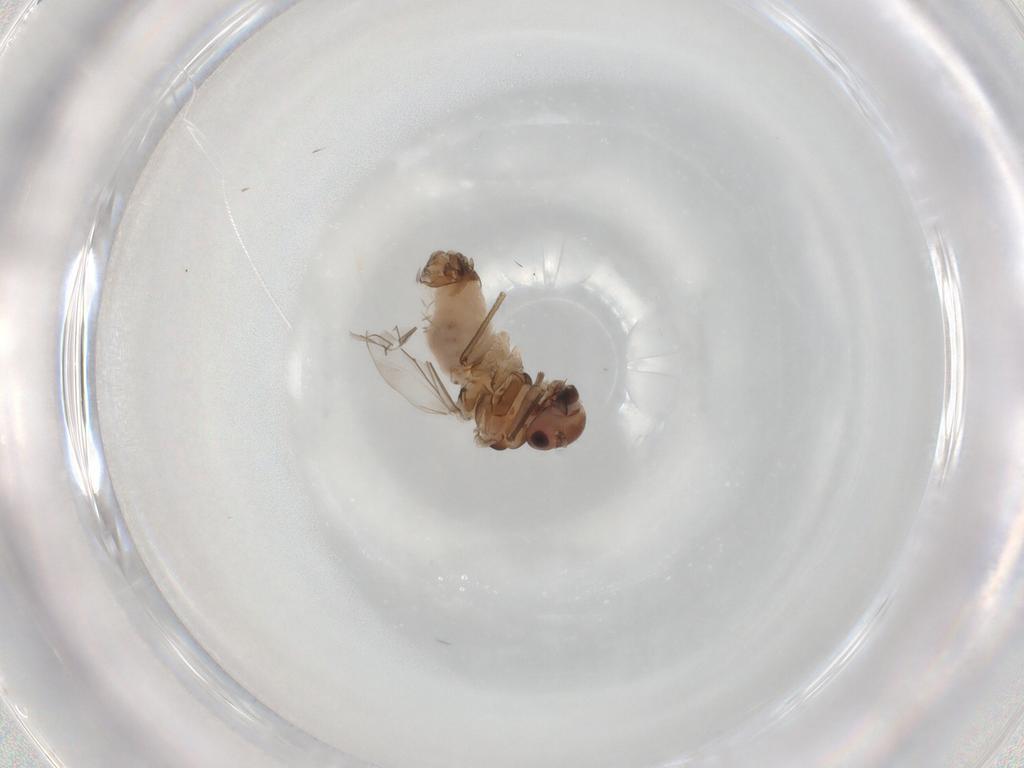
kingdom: Animalia
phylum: Arthropoda
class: Insecta
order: Psocodea
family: Peripsocidae
